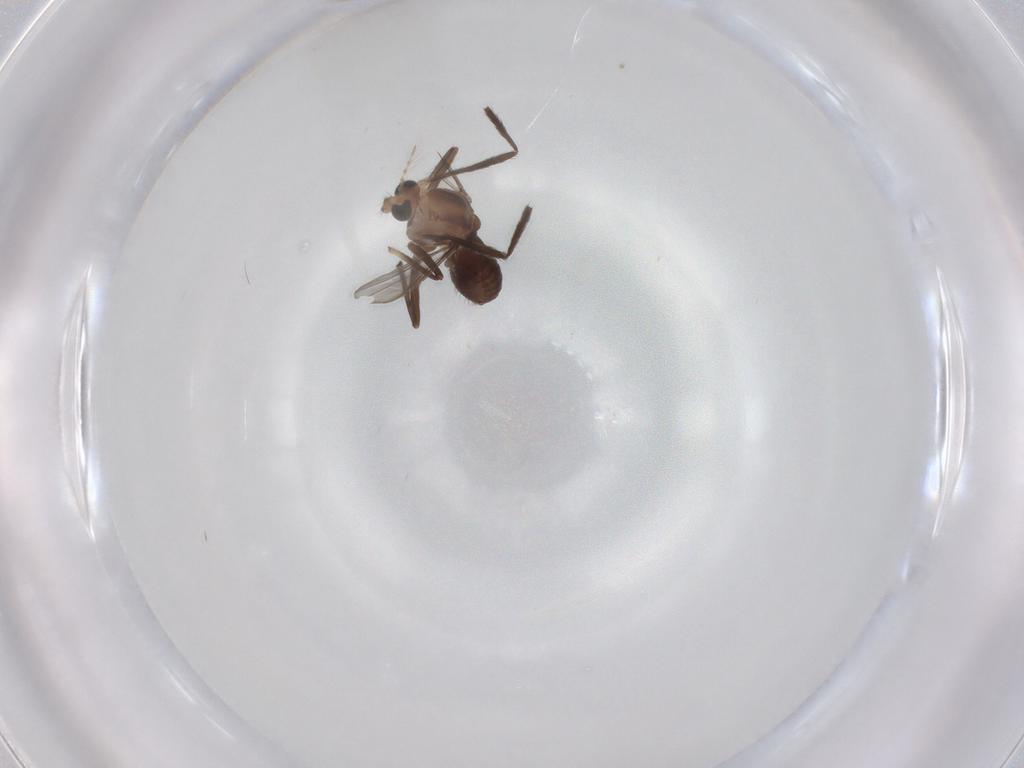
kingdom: Animalia
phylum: Arthropoda
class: Insecta
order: Diptera
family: Chironomidae
